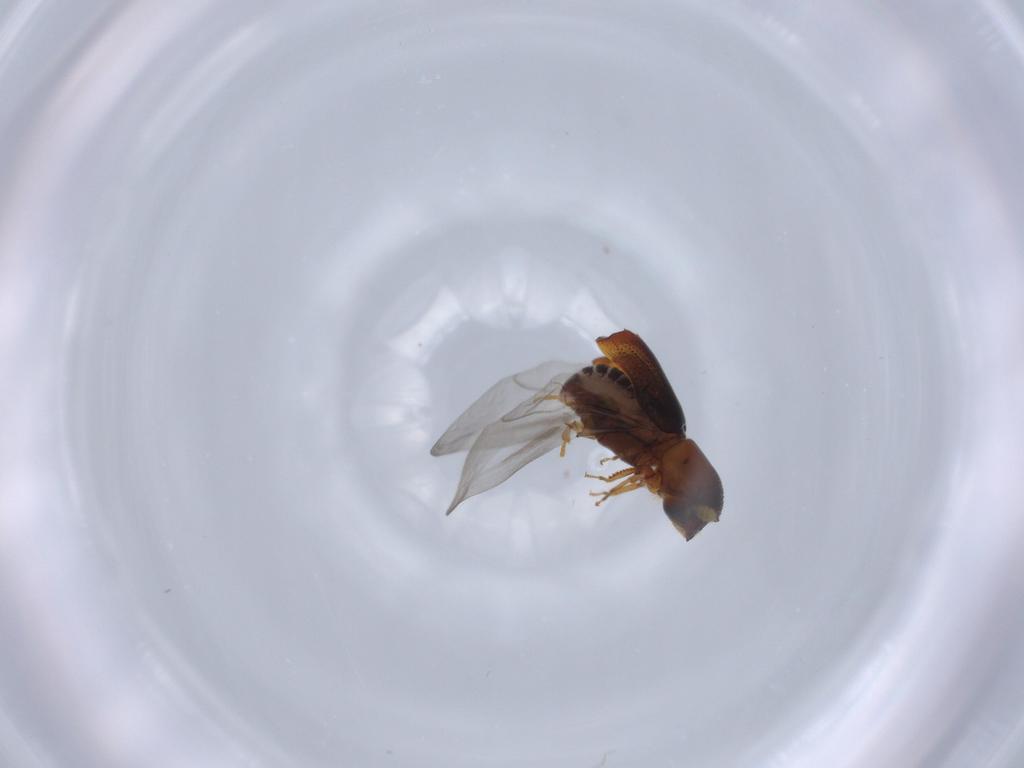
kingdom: Animalia
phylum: Arthropoda
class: Insecta
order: Coleoptera
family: Curculionidae
